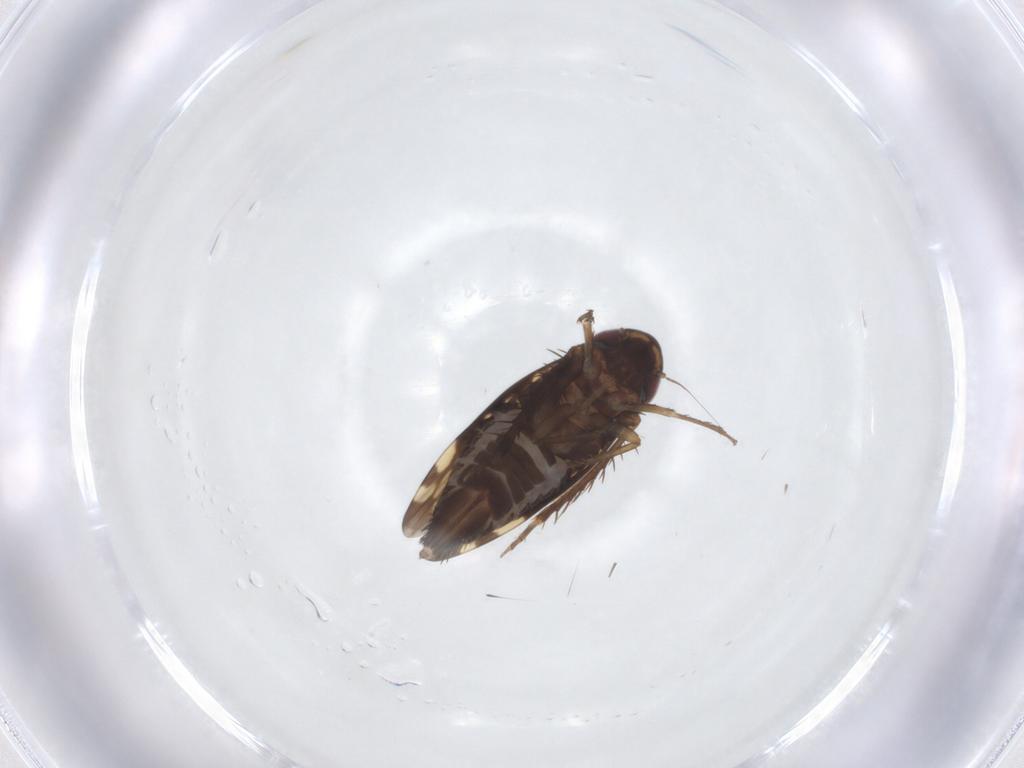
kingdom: Animalia
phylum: Arthropoda
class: Insecta
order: Hemiptera
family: Cicadellidae
